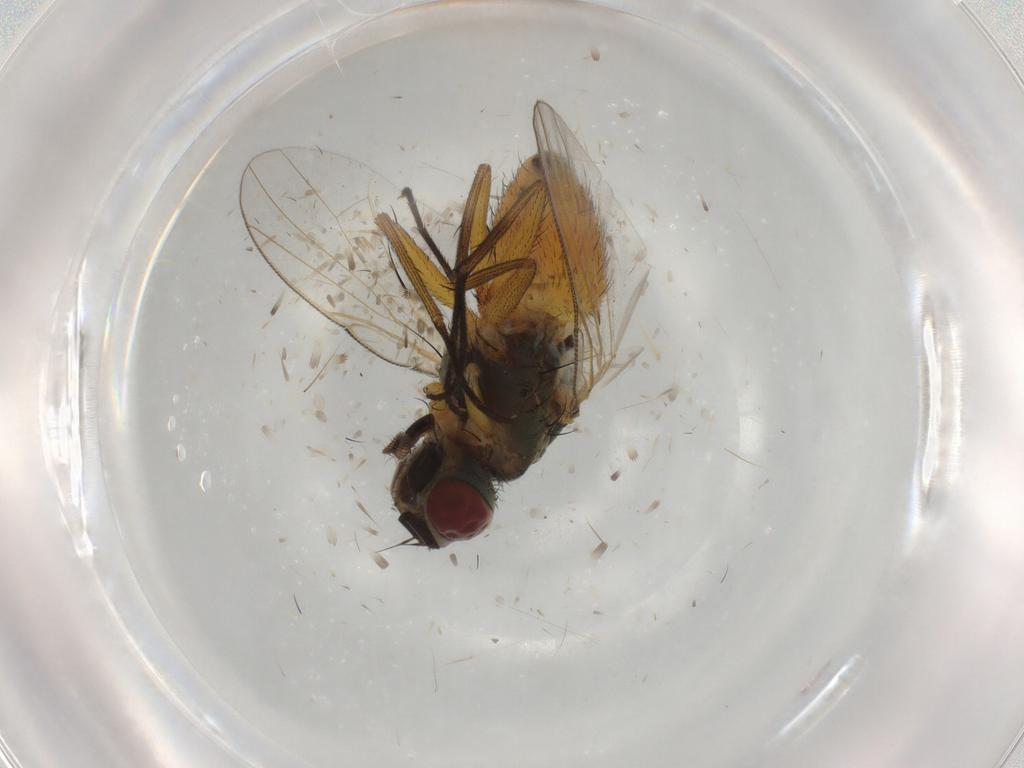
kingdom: Animalia
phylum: Arthropoda
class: Insecta
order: Diptera
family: Muscidae
